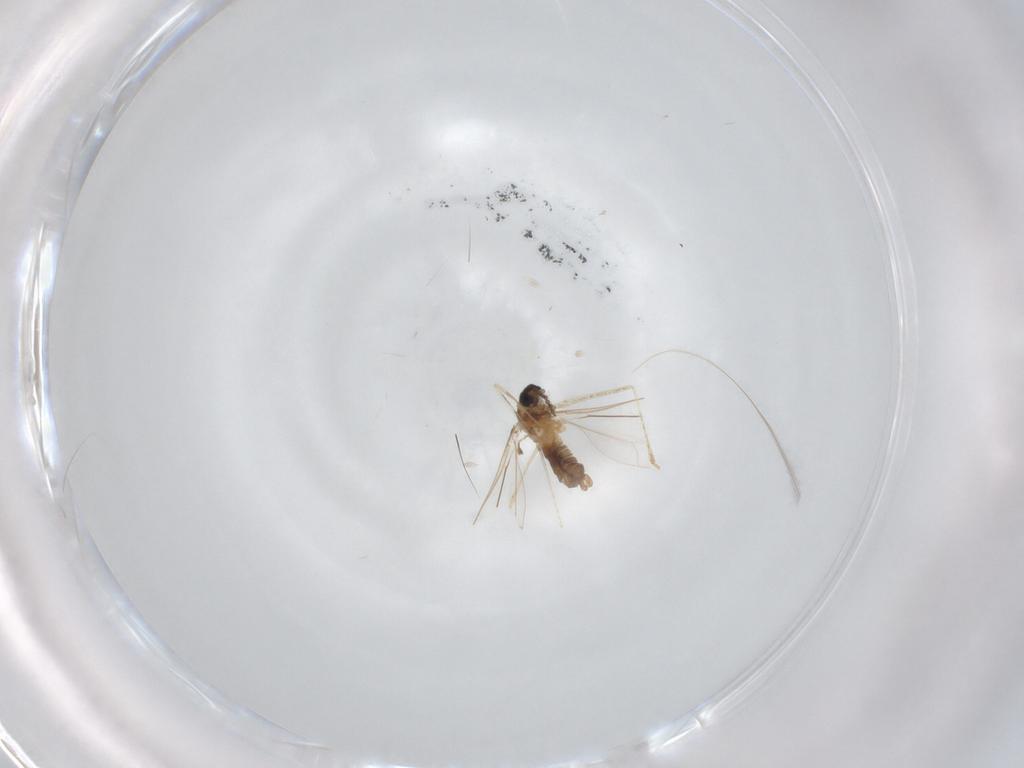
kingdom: Animalia
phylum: Arthropoda
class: Insecta
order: Diptera
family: Cecidomyiidae
